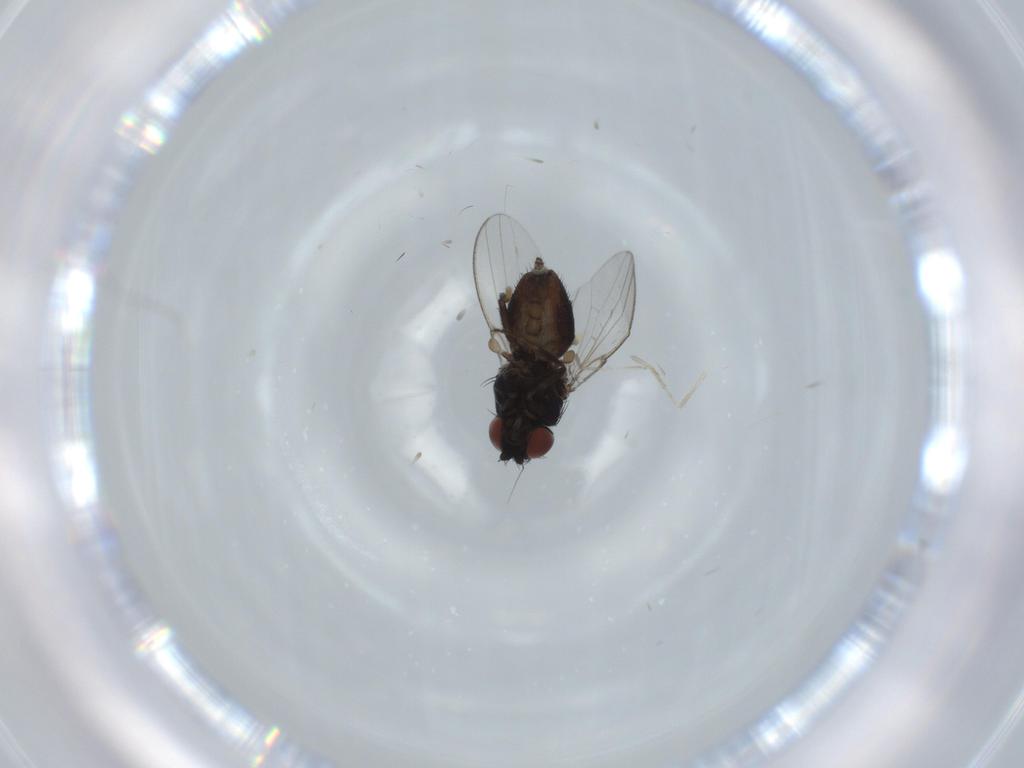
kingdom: Animalia
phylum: Arthropoda
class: Insecta
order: Diptera
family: Milichiidae
